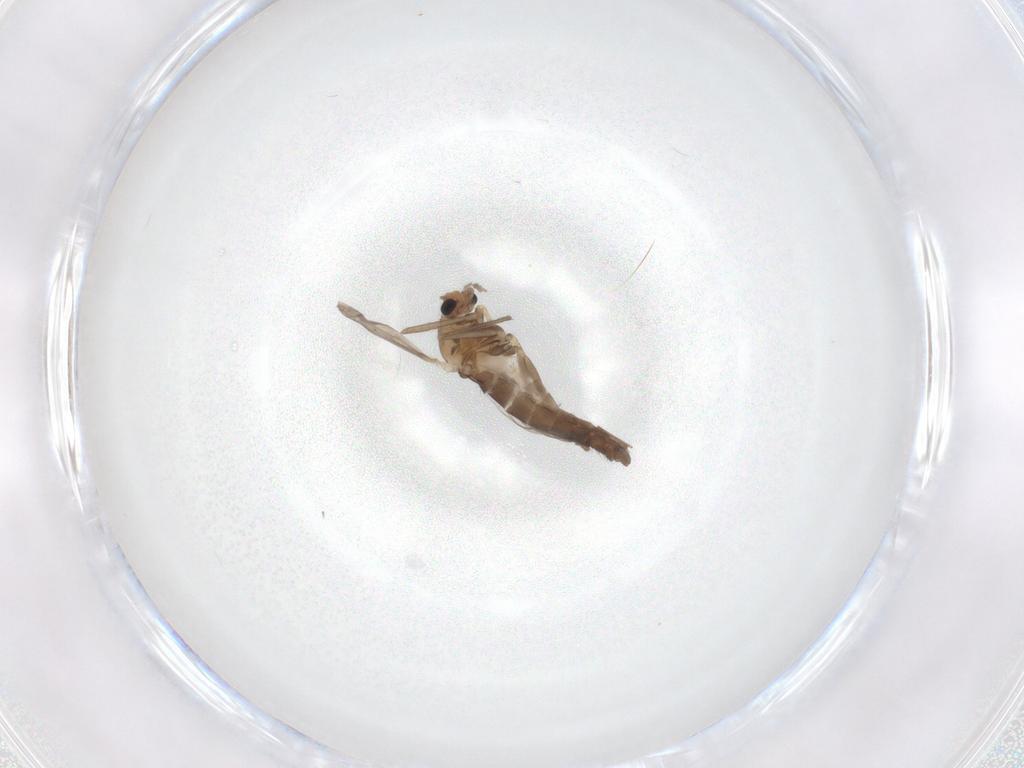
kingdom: Animalia
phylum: Arthropoda
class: Insecta
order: Diptera
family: Chironomidae
